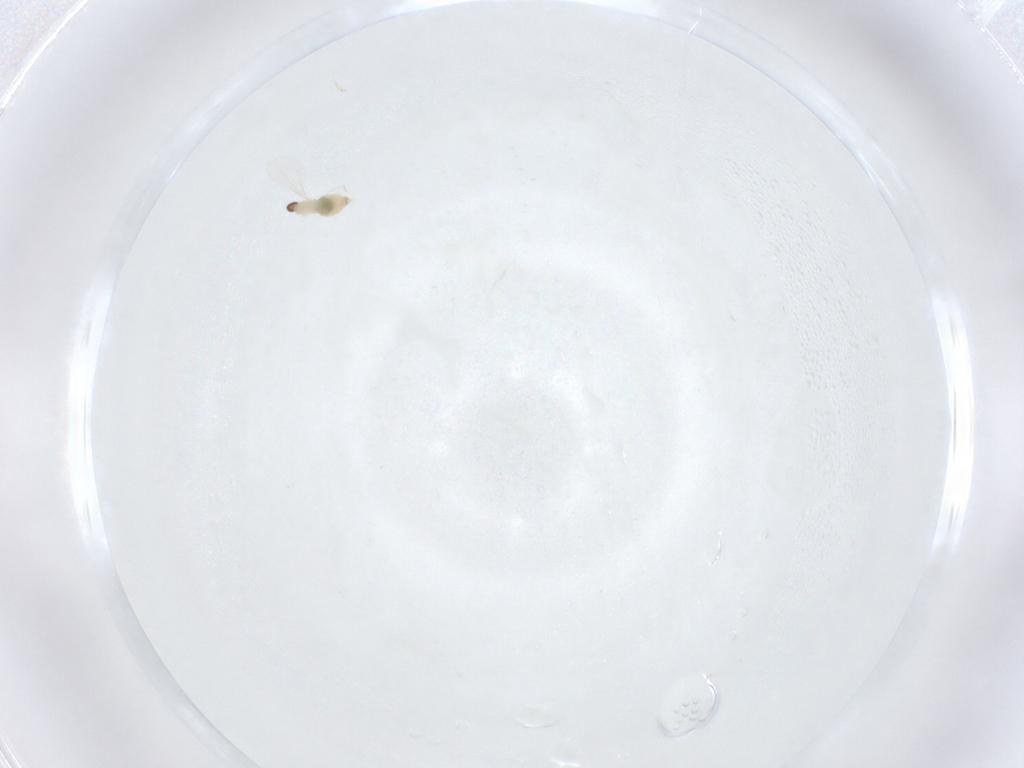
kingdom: Animalia
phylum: Arthropoda
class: Insecta
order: Diptera
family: Cecidomyiidae
